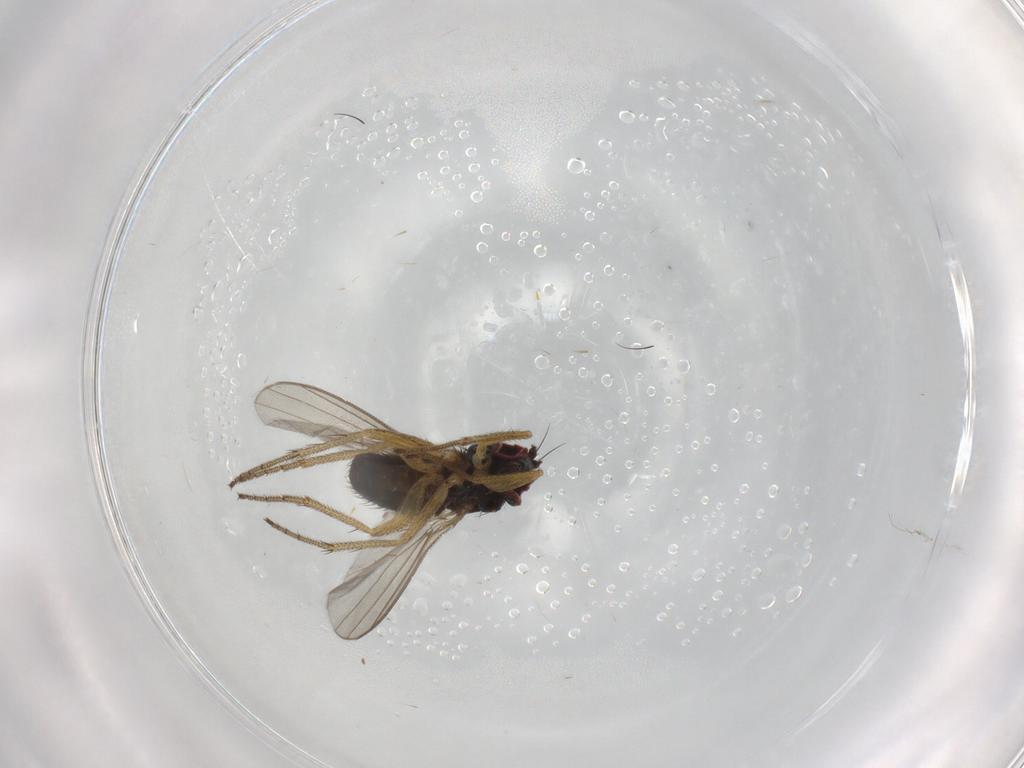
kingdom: Animalia
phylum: Arthropoda
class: Insecta
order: Diptera
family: Dolichopodidae
